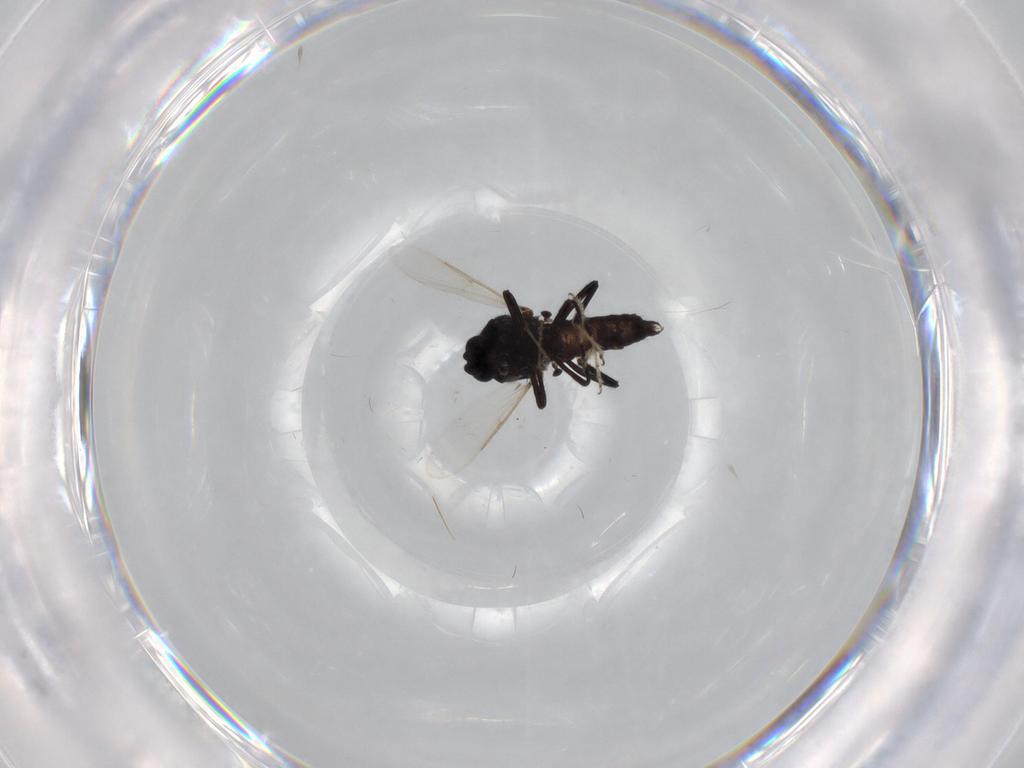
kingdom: Animalia
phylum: Arthropoda
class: Insecta
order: Diptera
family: Ceratopogonidae
